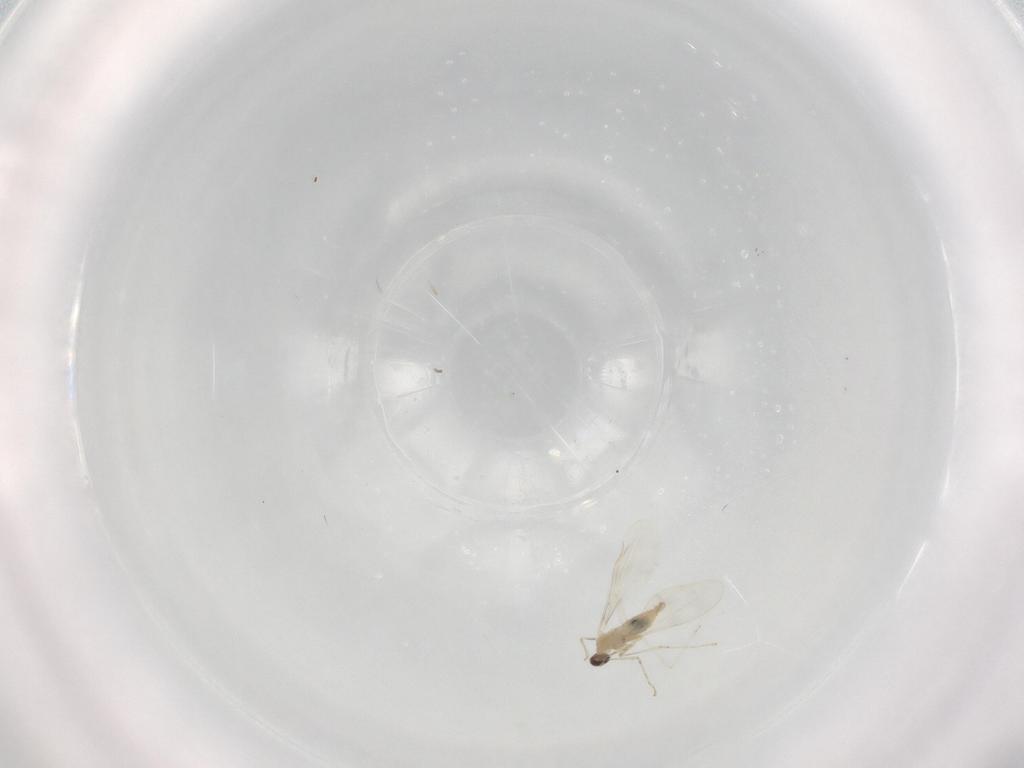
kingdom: Animalia
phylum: Arthropoda
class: Insecta
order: Diptera
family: Cecidomyiidae
